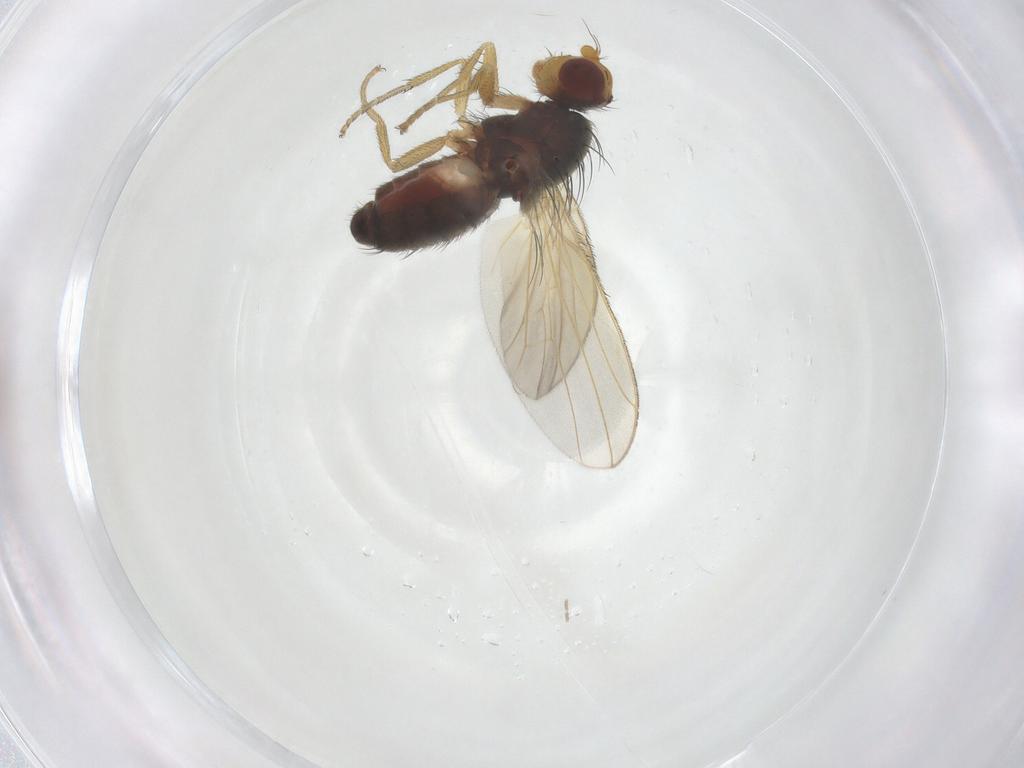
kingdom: Animalia
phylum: Arthropoda
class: Insecta
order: Diptera
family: Heleomyzidae
